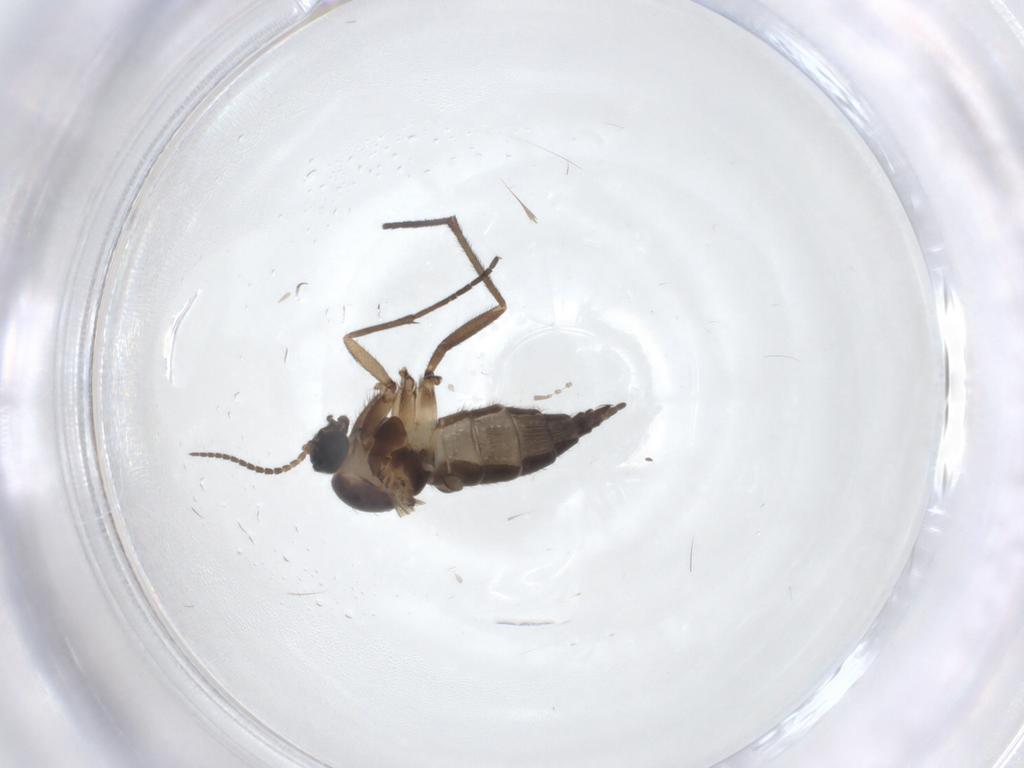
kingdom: Animalia
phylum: Arthropoda
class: Insecta
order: Diptera
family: Sciaridae
